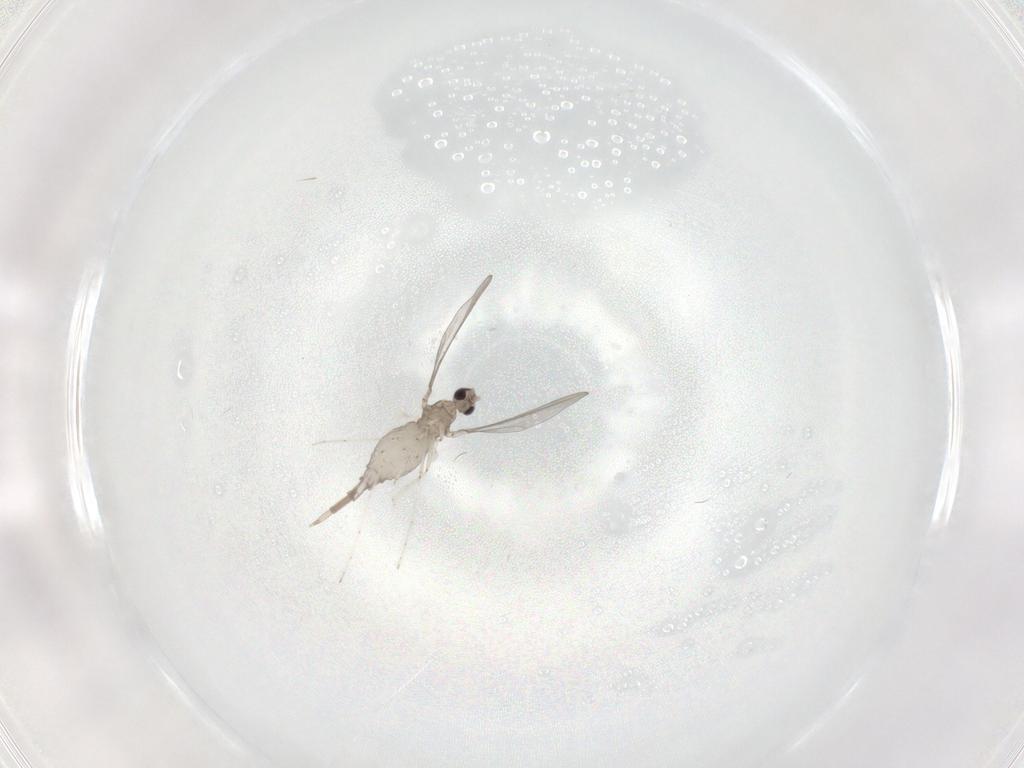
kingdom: Animalia
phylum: Arthropoda
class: Insecta
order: Diptera
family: Cecidomyiidae
